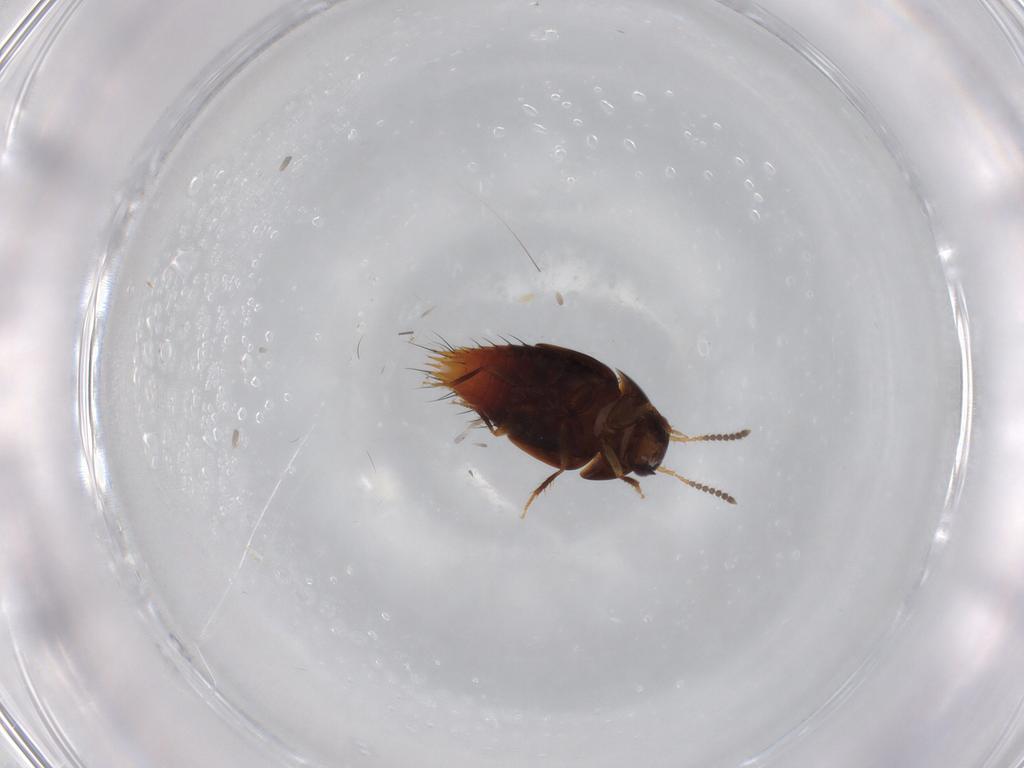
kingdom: Animalia
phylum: Arthropoda
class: Insecta
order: Coleoptera
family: Staphylinidae
